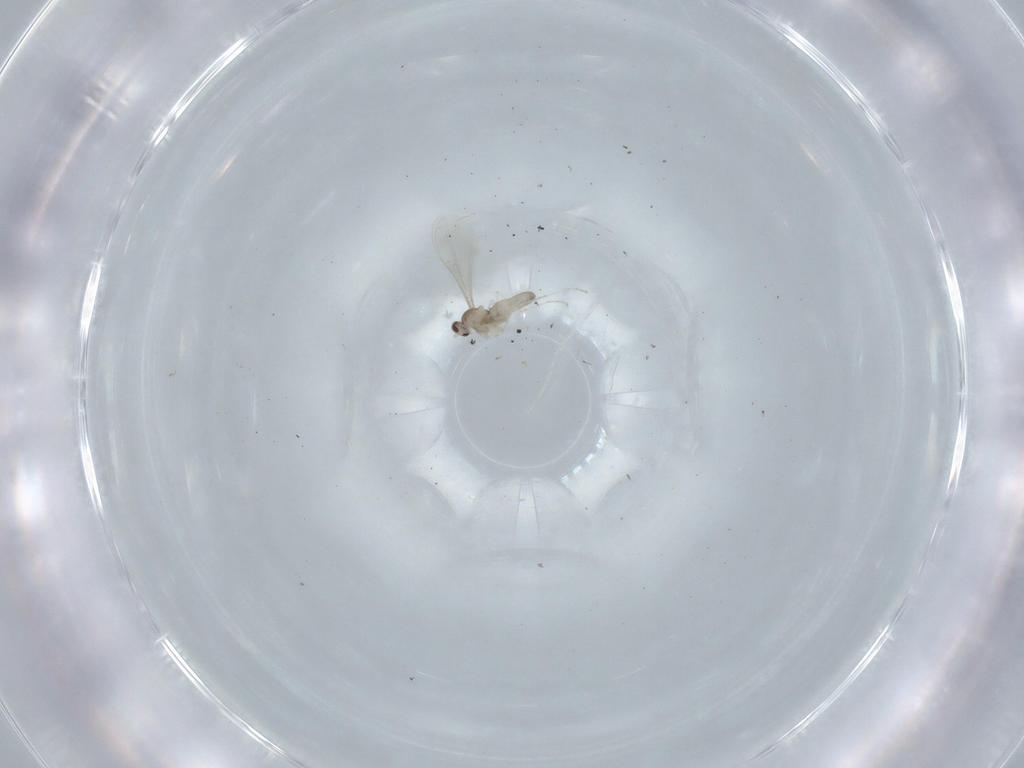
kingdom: Animalia
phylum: Arthropoda
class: Insecta
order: Diptera
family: Cecidomyiidae
